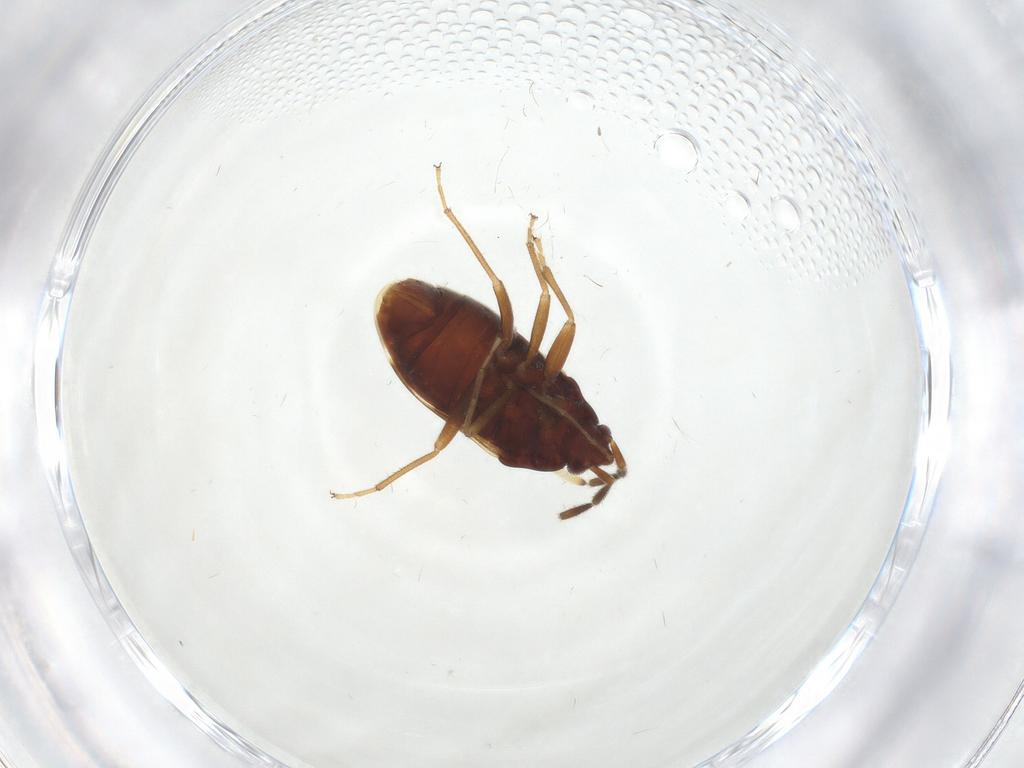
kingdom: Animalia
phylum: Arthropoda
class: Insecta
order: Hemiptera
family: Rhyparochromidae
